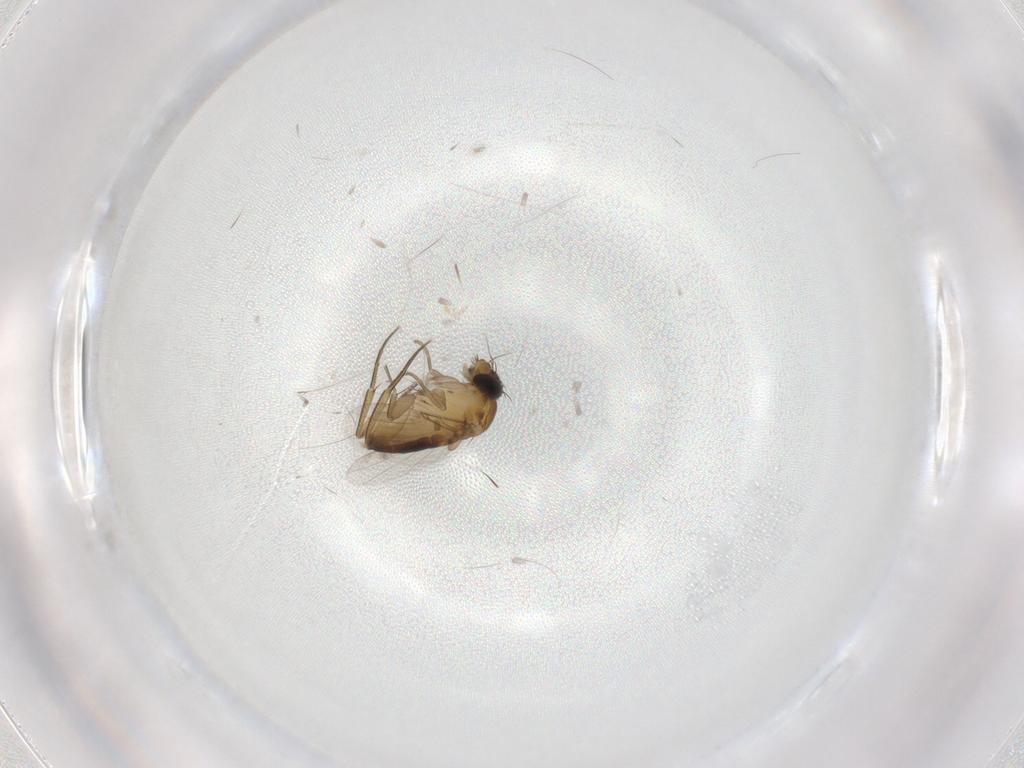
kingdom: Animalia
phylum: Arthropoda
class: Insecta
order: Diptera
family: Phoridae
